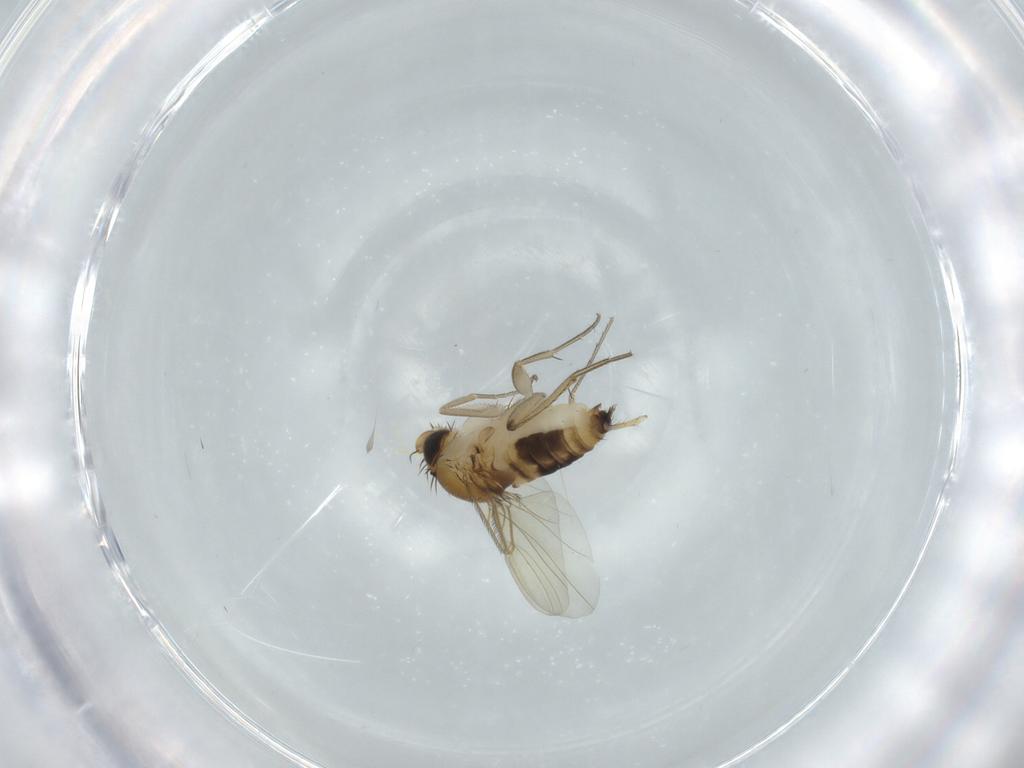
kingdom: Animalia
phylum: Arthropoda
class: Insecta
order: Diptera
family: Phoridae
